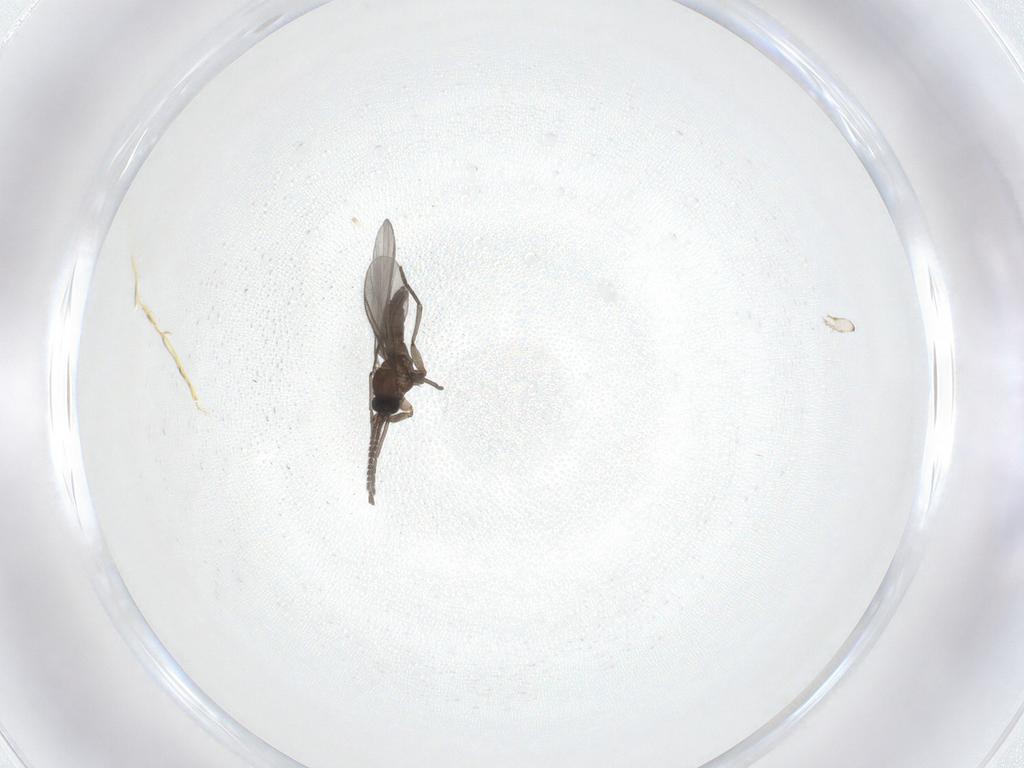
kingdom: Animalia
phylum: Arthropoda
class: Insecta
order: Diptera
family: Sciaridae
